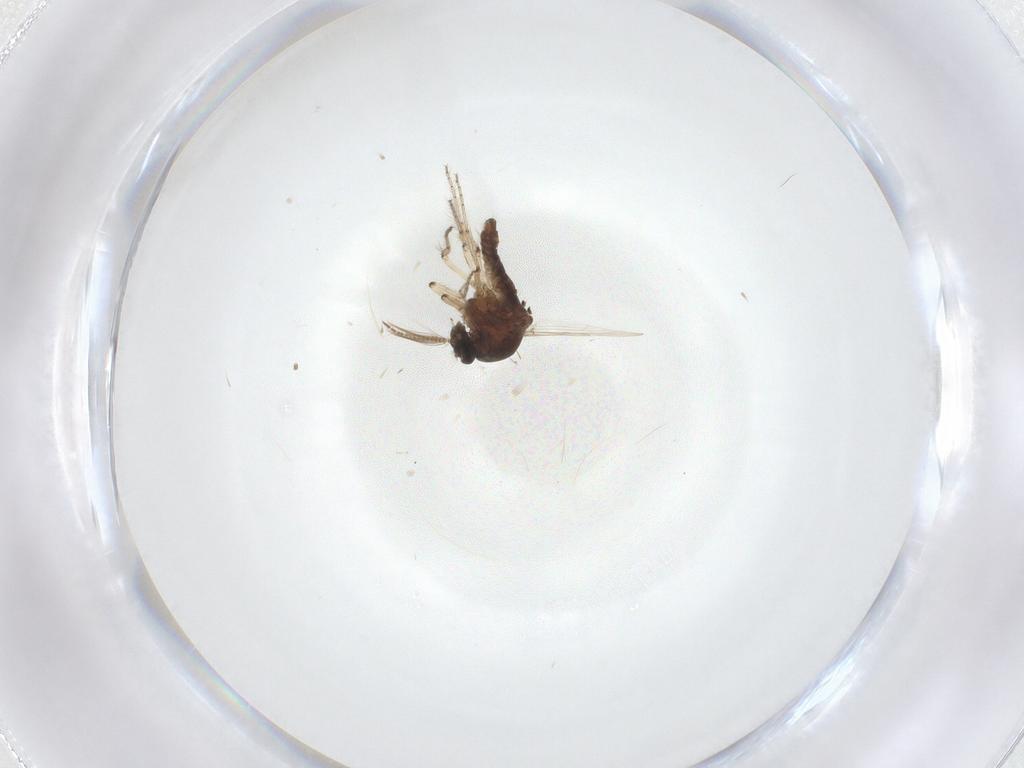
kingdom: Animalia
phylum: Arthropoda
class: Insecta
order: Diptera
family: Ceratopogonidae
